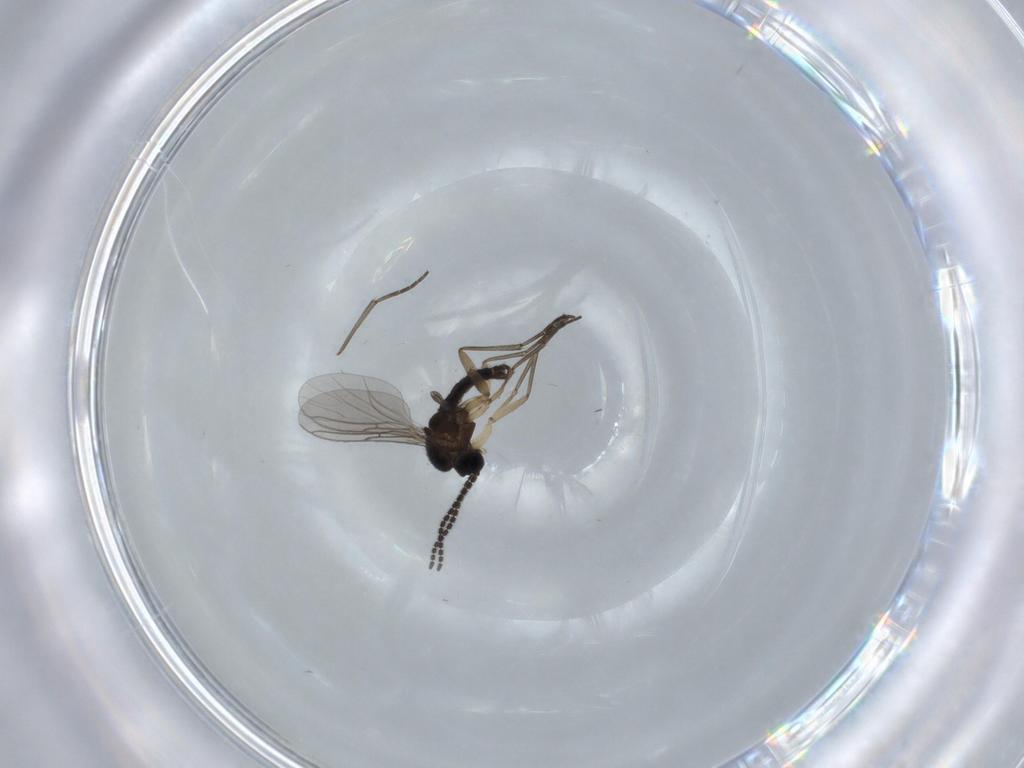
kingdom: Animalia
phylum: Arthropoda
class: Insecta
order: Diptera
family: Sciaridae
